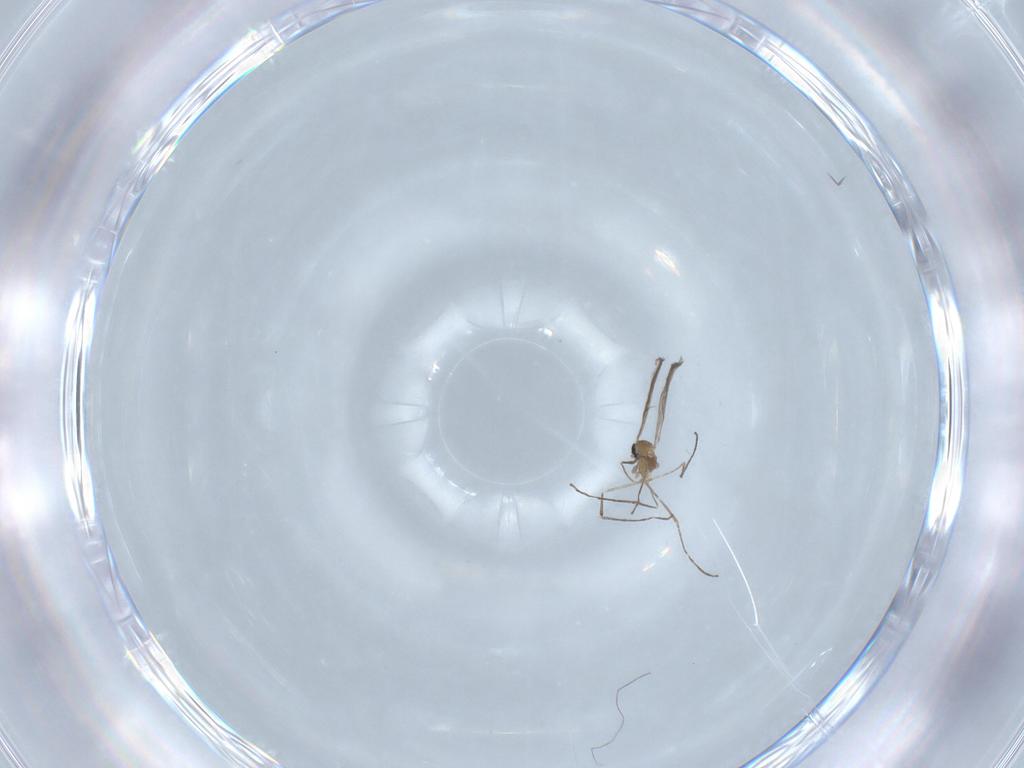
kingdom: Animalia
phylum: Arthropoda
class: Insecta
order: Diptera
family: Cecidomyiidae
